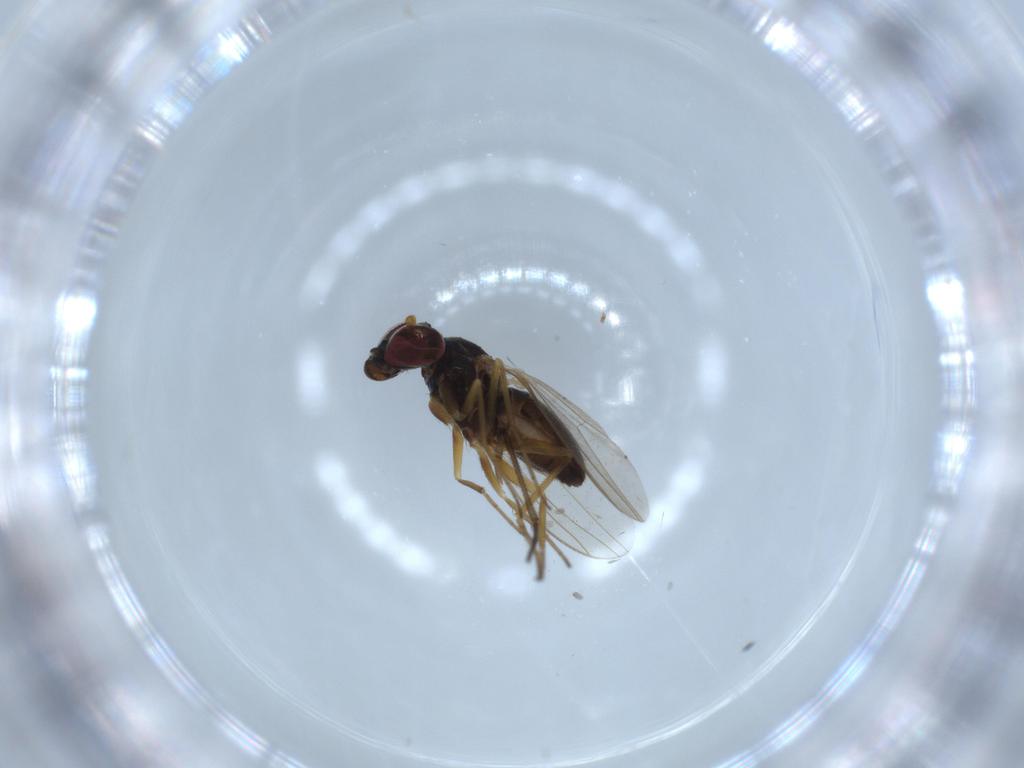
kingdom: Animalia
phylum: Arthropoda
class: Insecta
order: Diptera
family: Sciaridae
